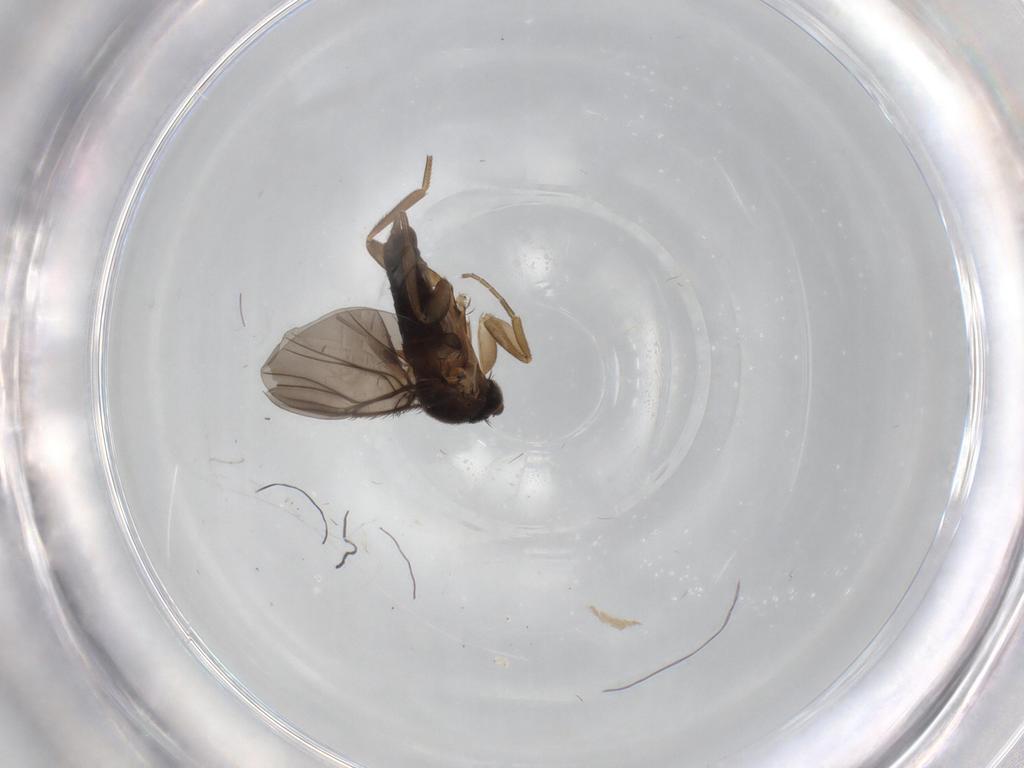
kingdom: Animalia
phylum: Arthropoda
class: Insecta
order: Diptera
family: Phoridae
